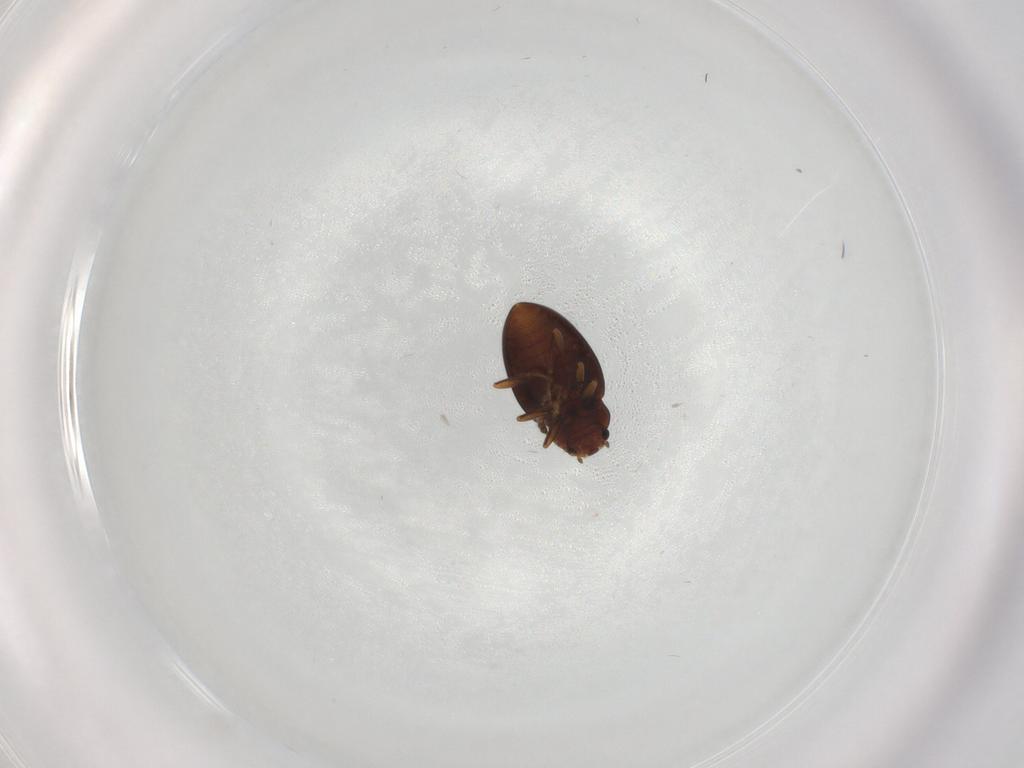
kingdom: Animalia
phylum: Arthropoda
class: Insecta
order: Coleoptera
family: Erotylidae
